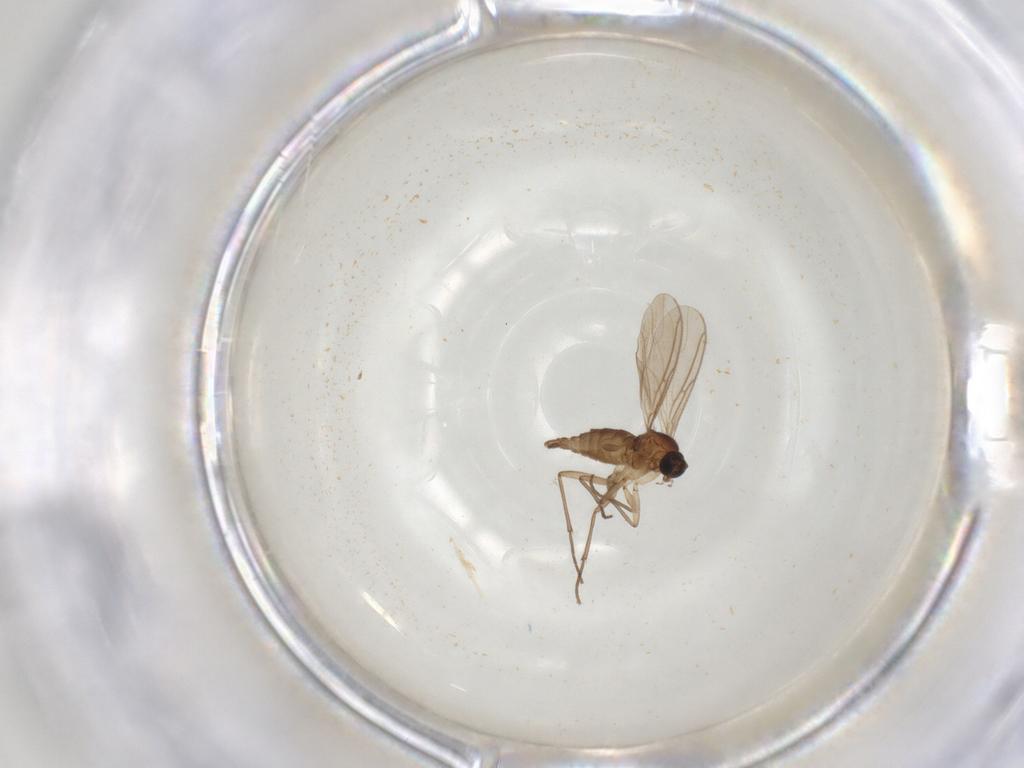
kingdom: Animalia
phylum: Arthropoda
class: Insecta
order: Diptera
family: Sciaridae
